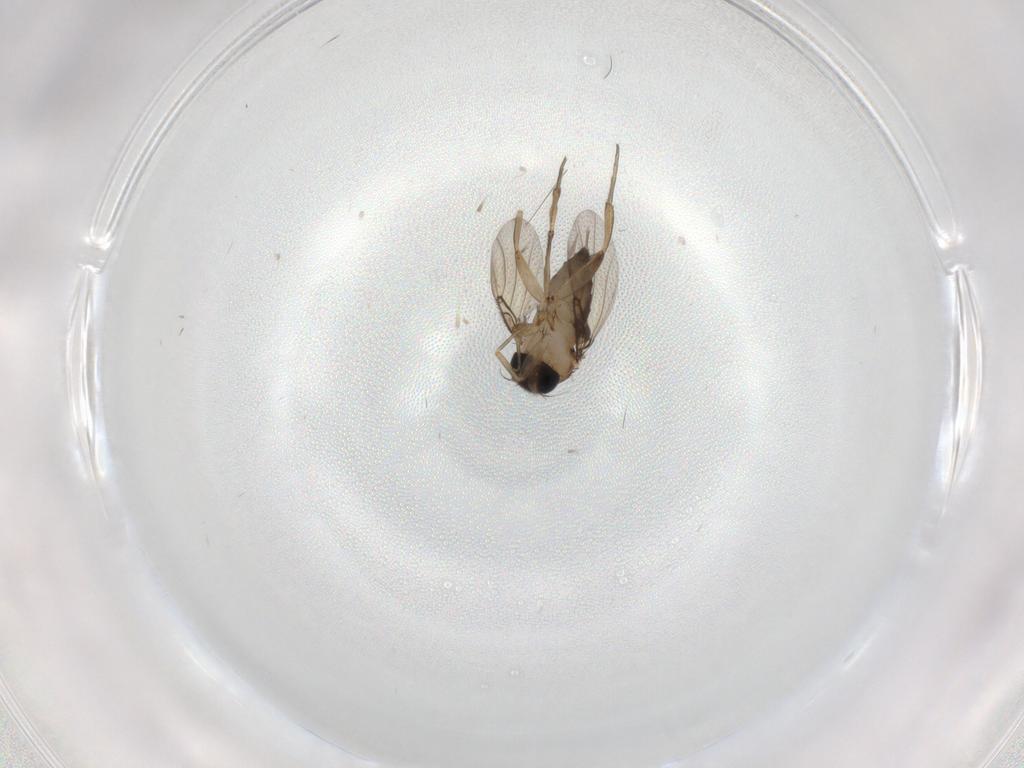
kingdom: Animalia
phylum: Arthropoda
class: Insecta
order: Diptera
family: Phoridae
